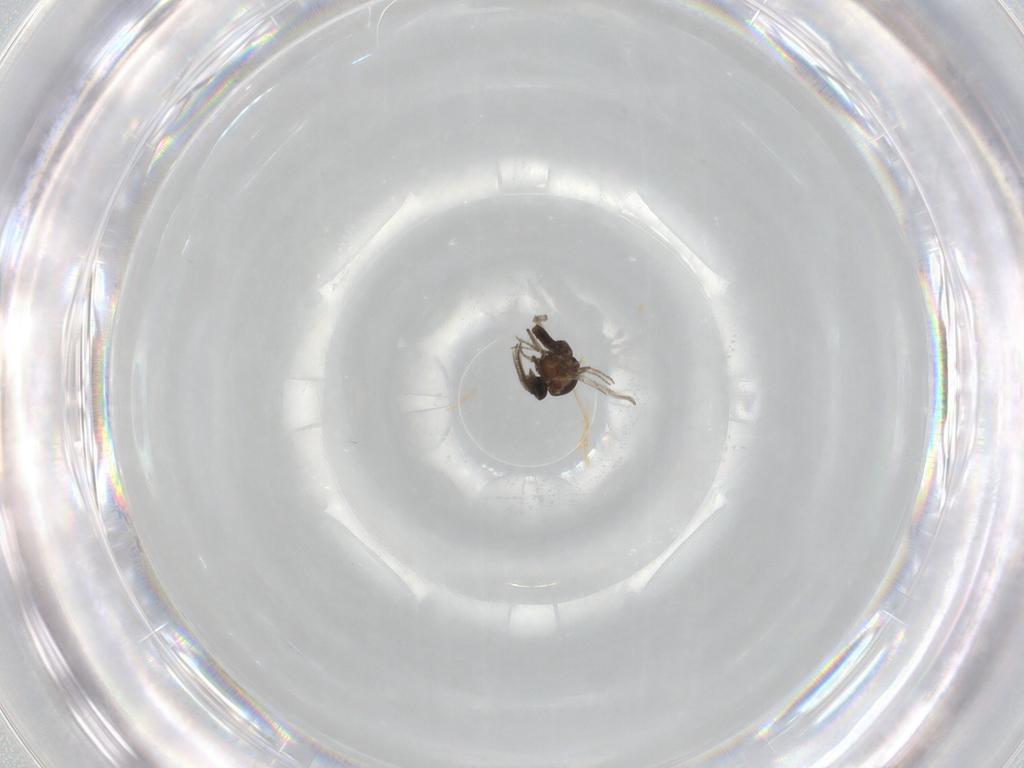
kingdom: Animalia
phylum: Arthropoda
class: Insecta
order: Diptera
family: Ceratopogonidae
